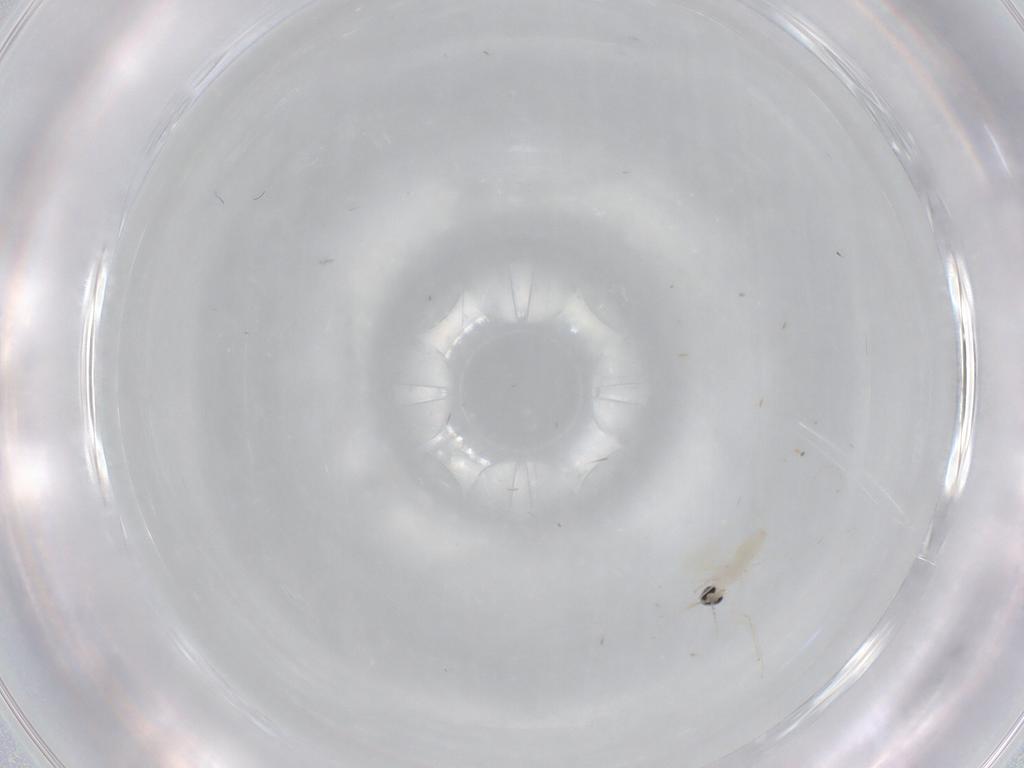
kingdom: Animalia
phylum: Arthropoda
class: Insecta
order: Diptera
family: Cecidomyiidae
